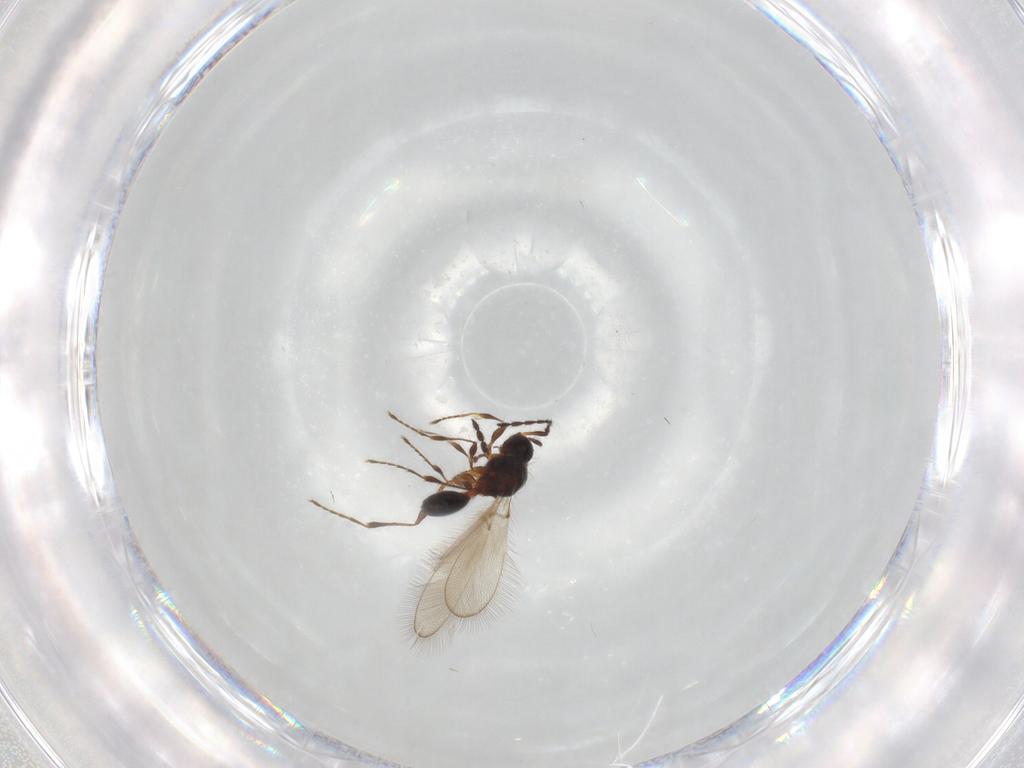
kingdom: Animalia
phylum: Arthropoda
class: Insecta
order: Hymenoptera
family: Diapriidae
